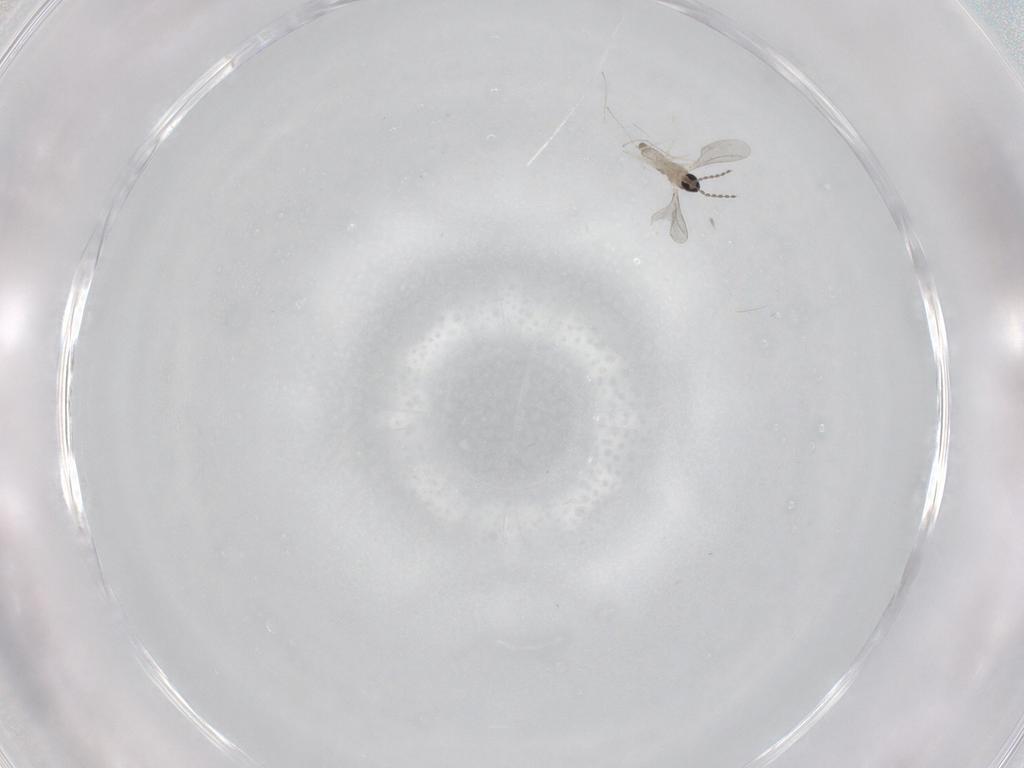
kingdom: Animalia
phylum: Arthropoda
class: Insecta
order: Diptera
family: Cecidomyiidae
